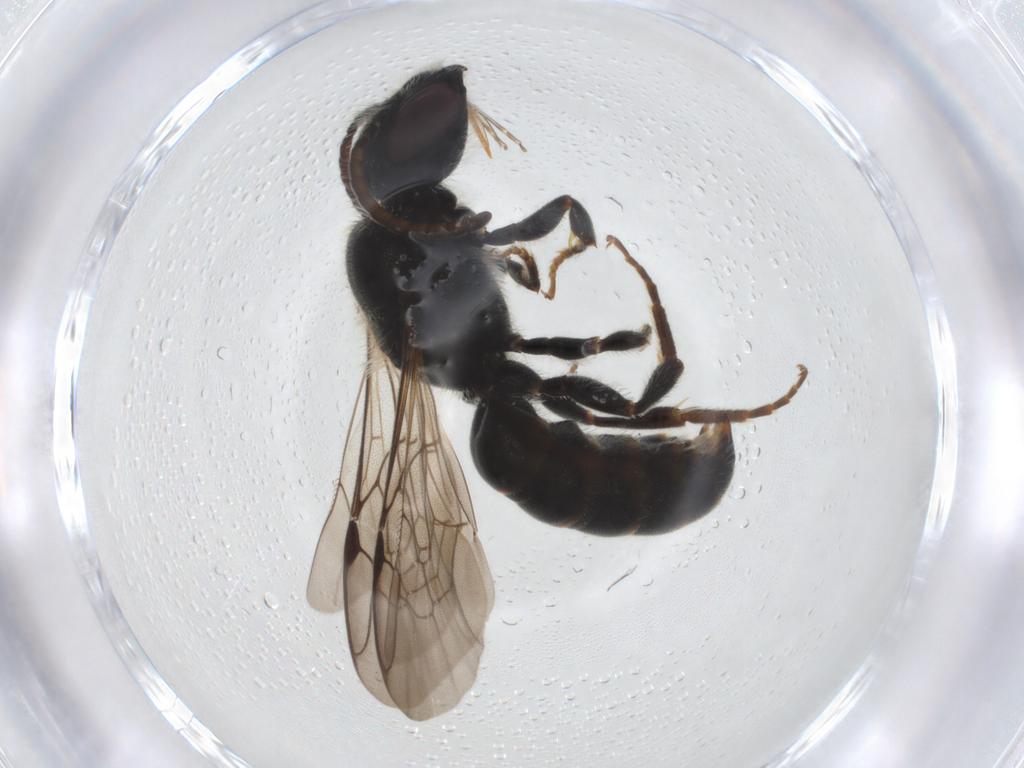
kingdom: Animalia
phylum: Arthropoda
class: Insecta
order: Hymenoptera
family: Megachilidae
